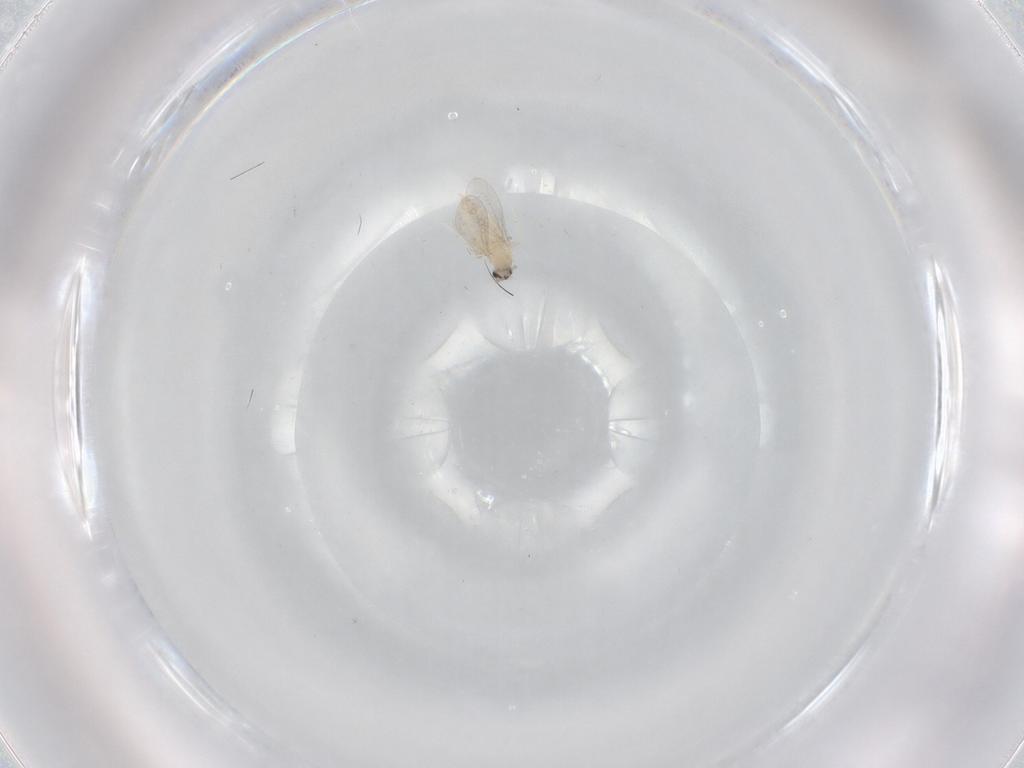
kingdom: Animalia
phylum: Arthropoda
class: Insecta
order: Diptera
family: Cecidomyiidae
